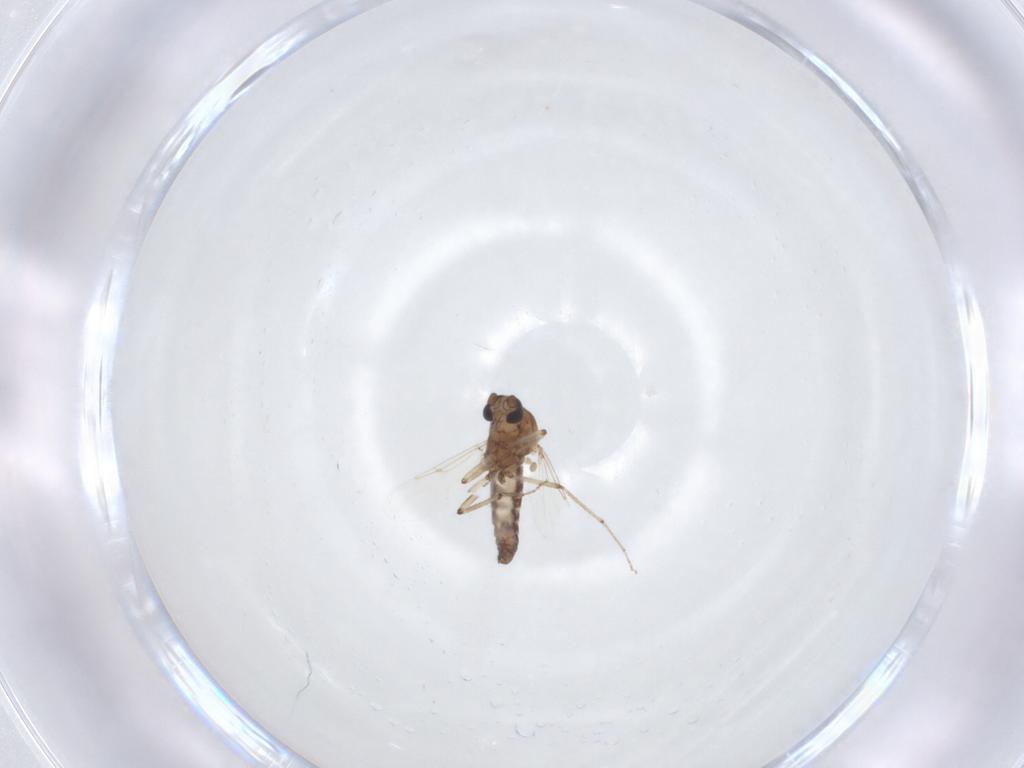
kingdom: Animalia
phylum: Arthropoda
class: Insecta
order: Diptera
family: Ceratopogonidae
